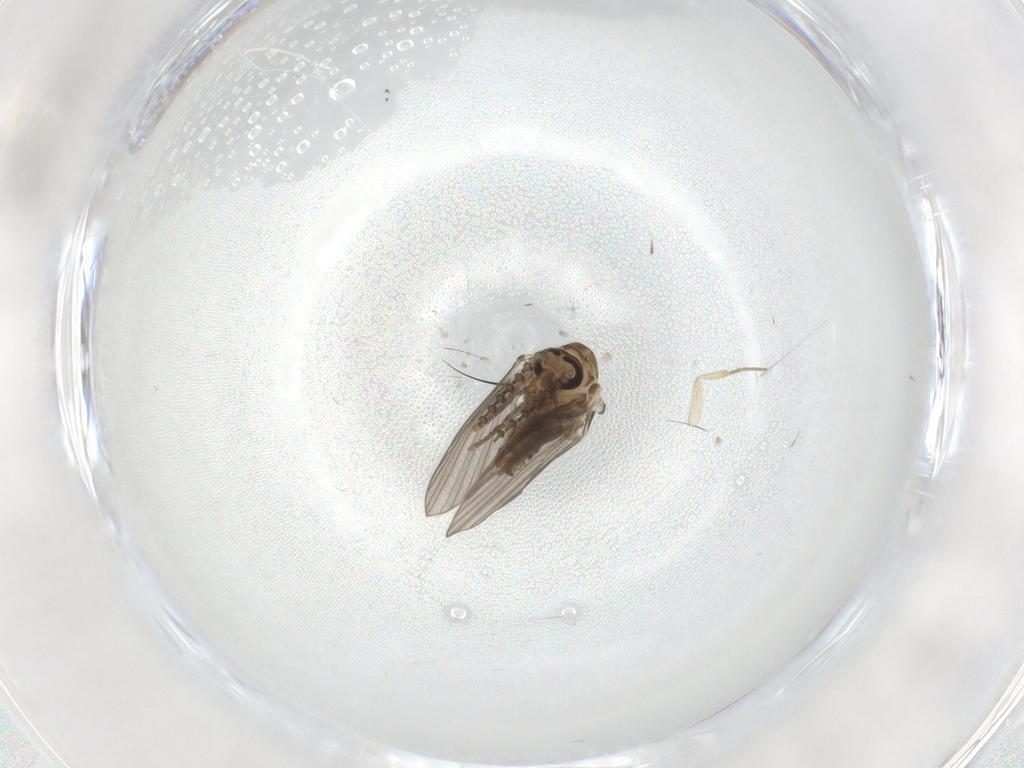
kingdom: Animalia
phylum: Arthropoda
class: Insecta
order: Diptera
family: Psychodidae
